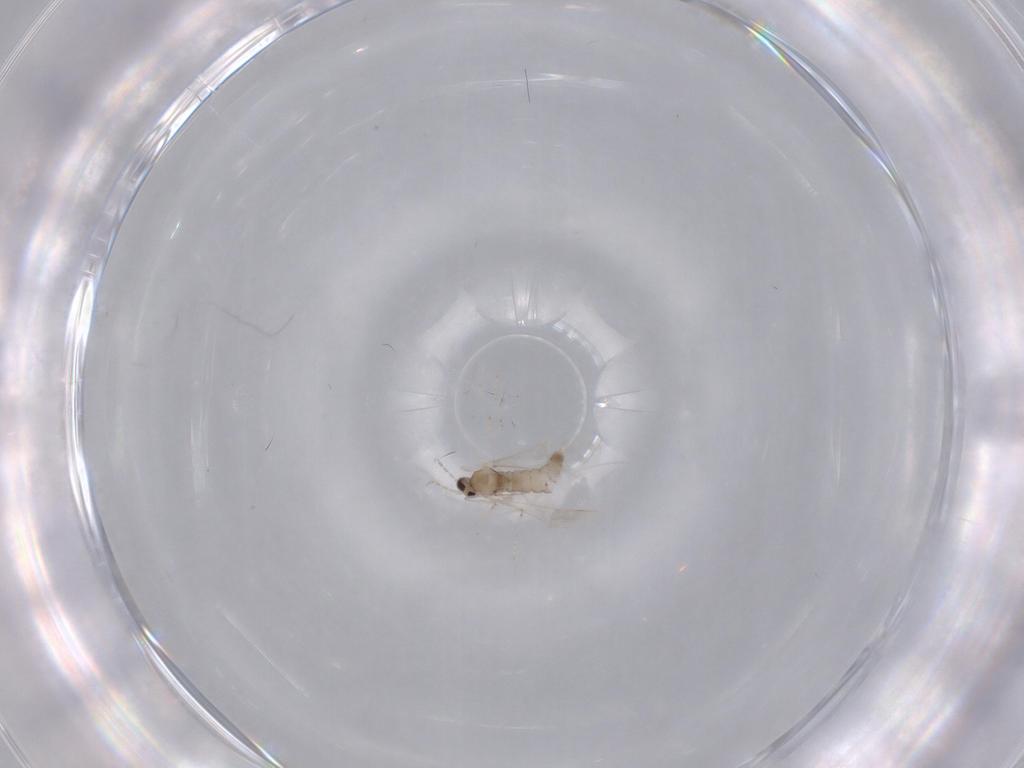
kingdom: Animalia
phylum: Arthropoda
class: Insecta
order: Diptera
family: Cecidomyiidae
